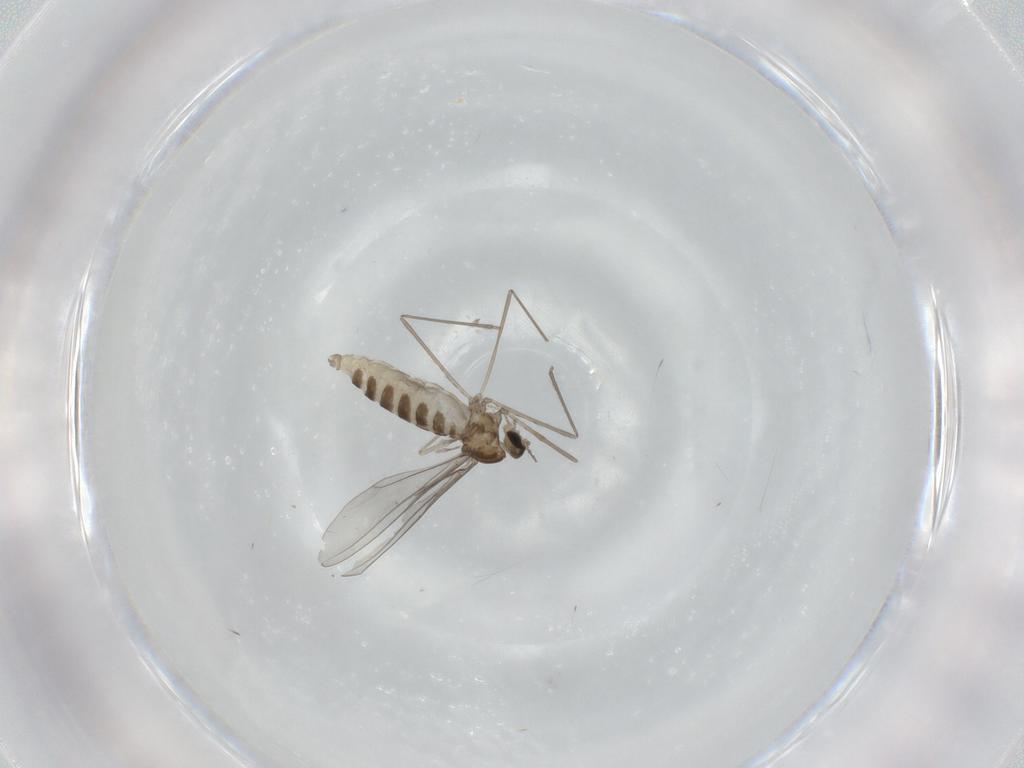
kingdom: Animalia
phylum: Arthropoda
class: Insecta
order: Diptera
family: Cecidomyiidae
